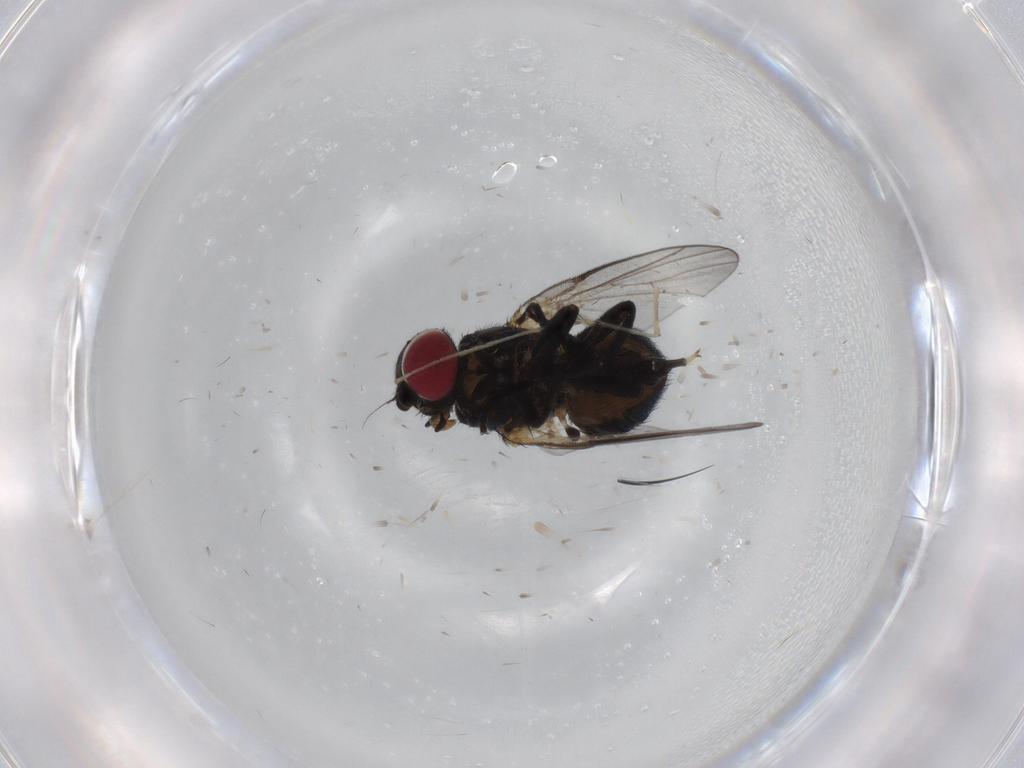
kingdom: Animalia
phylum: Arthropoda
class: Insecta
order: Diptera
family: Cecidomyiidae
